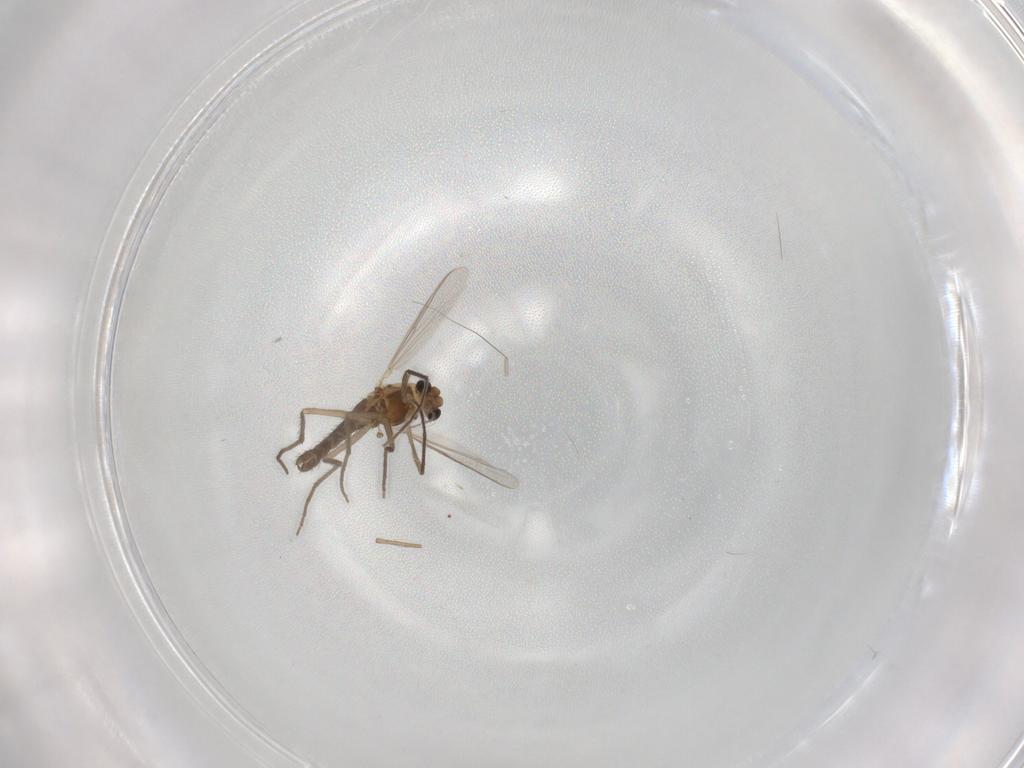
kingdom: Animalia
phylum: Arthropoda
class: Insecta
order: Diptera
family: Chironomidae
